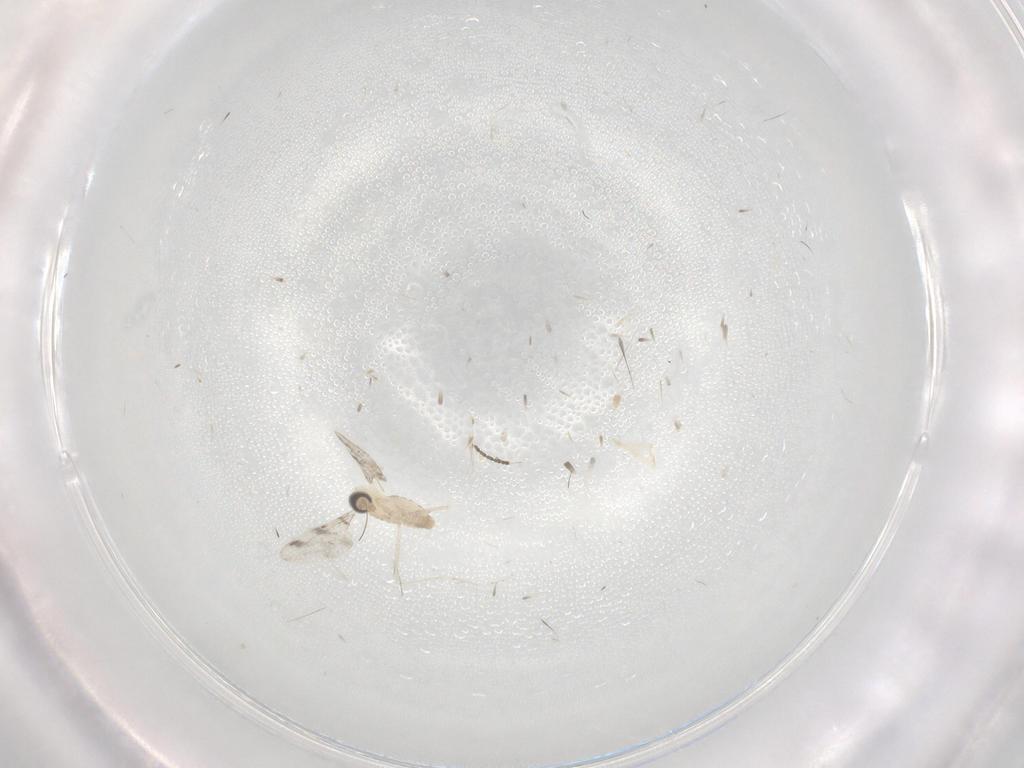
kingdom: Animalia
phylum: Arthropoda
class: Insecta
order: Diptera
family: Cecidomyiidae
